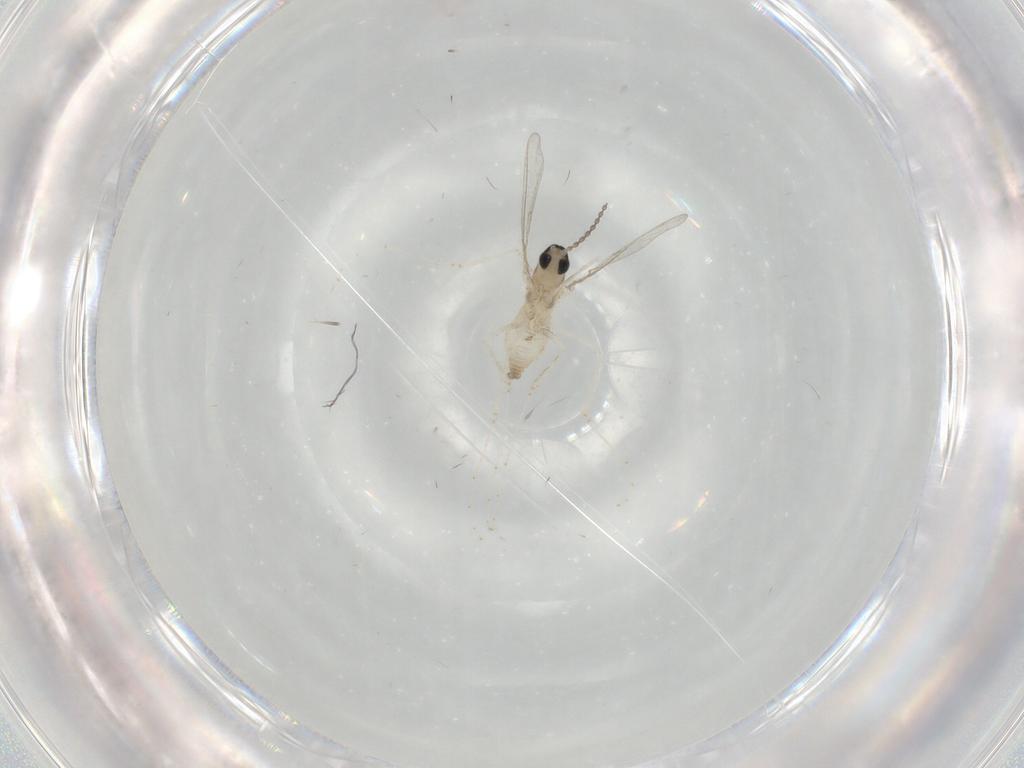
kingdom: Animalia
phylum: Arthropoda
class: Insecta
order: Diptera
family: Cecidomyiidae
